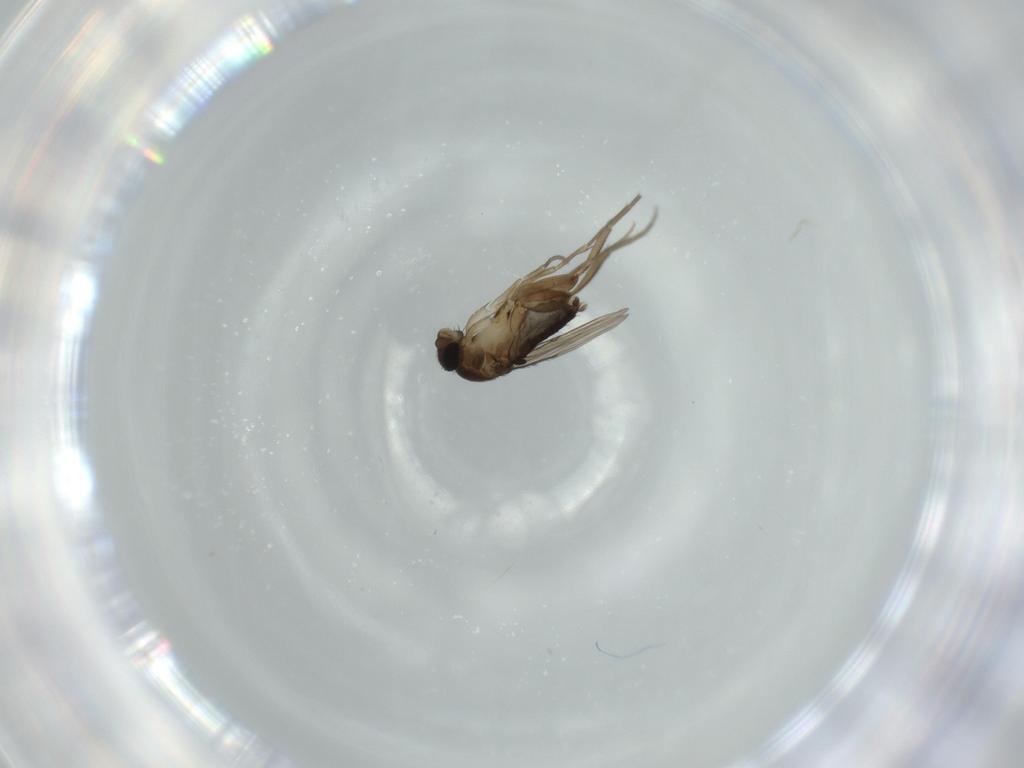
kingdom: Animalia
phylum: Arthropoda
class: Insecta
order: Diptera
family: Phoridae
